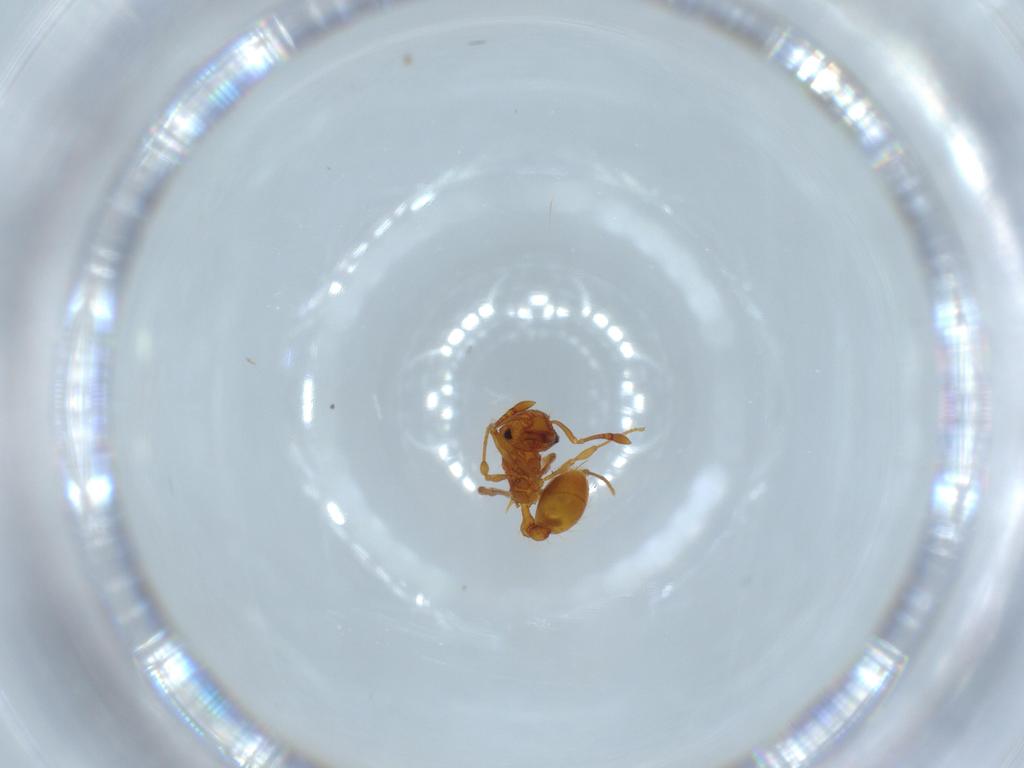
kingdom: Animalia
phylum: Arthropoda
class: Insecta
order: Hymenoptera
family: Formicidae
